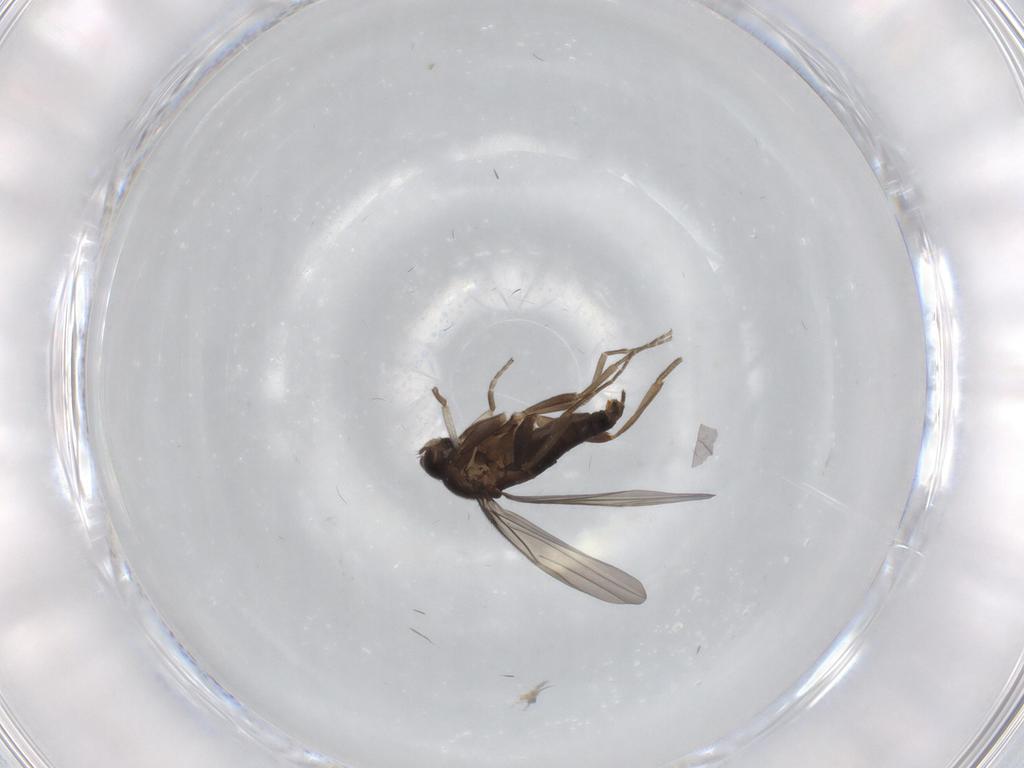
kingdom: Animalia
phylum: Arthropoda
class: Insecta
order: Diptera
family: Phoridae
